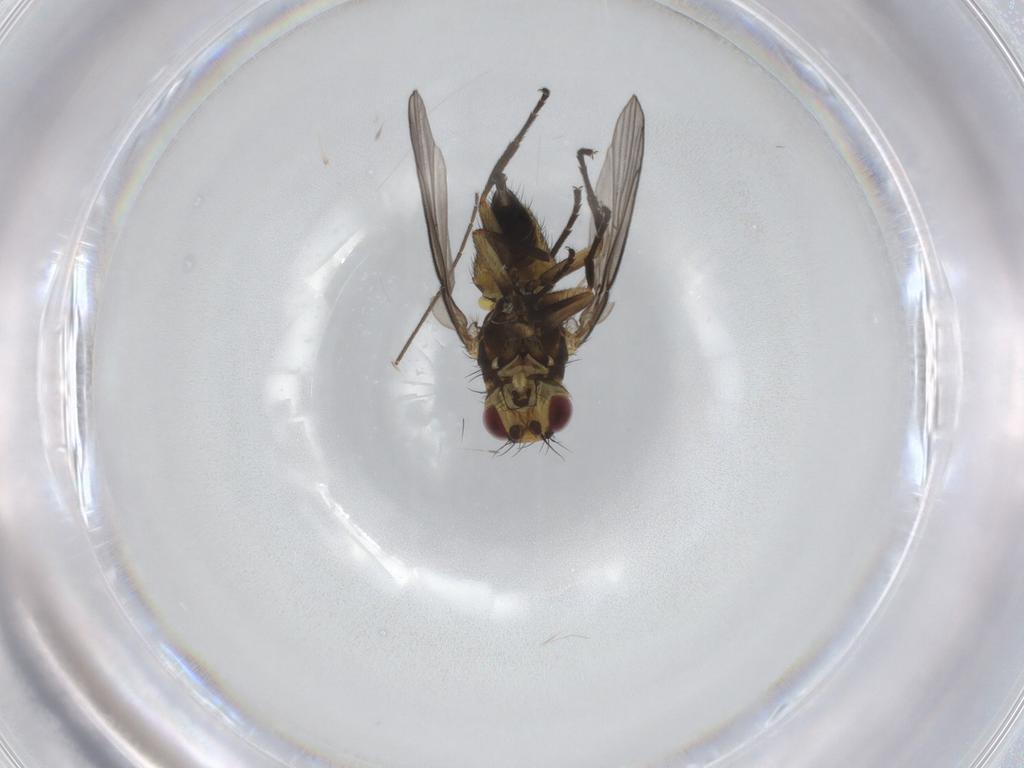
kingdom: Animalia
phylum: Arthropoda
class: Insecta
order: Diptera
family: Agromyzidae
